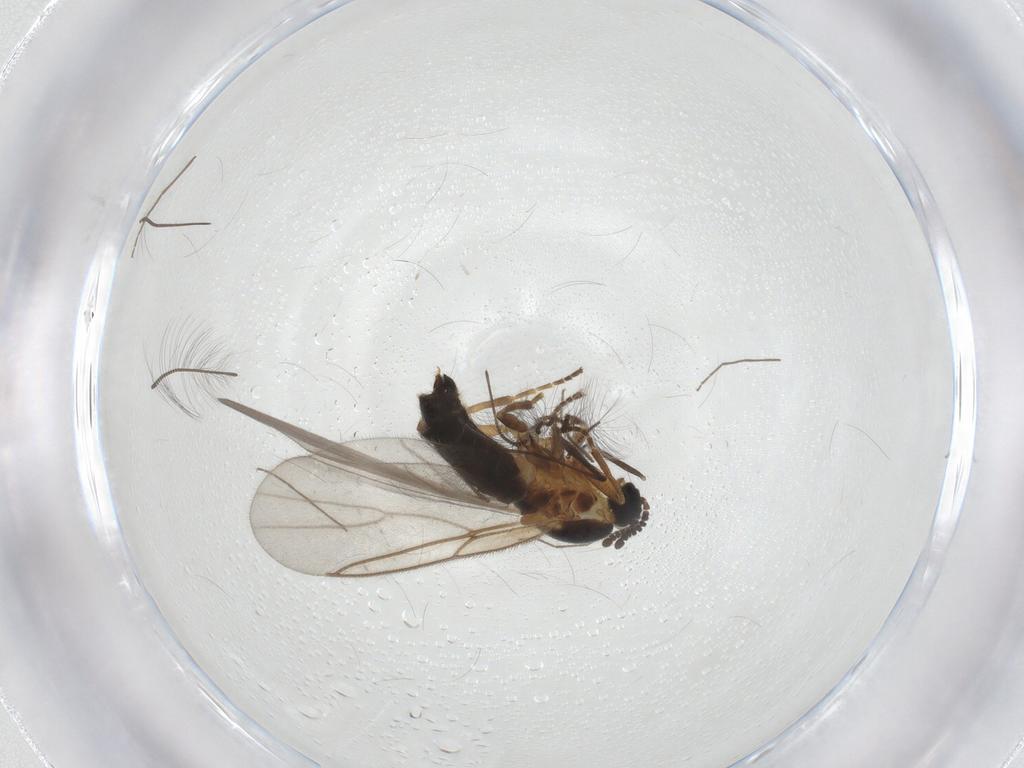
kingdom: Animalia
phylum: Arthropoda
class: Insecta
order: Diptera
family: Scatopsidae
